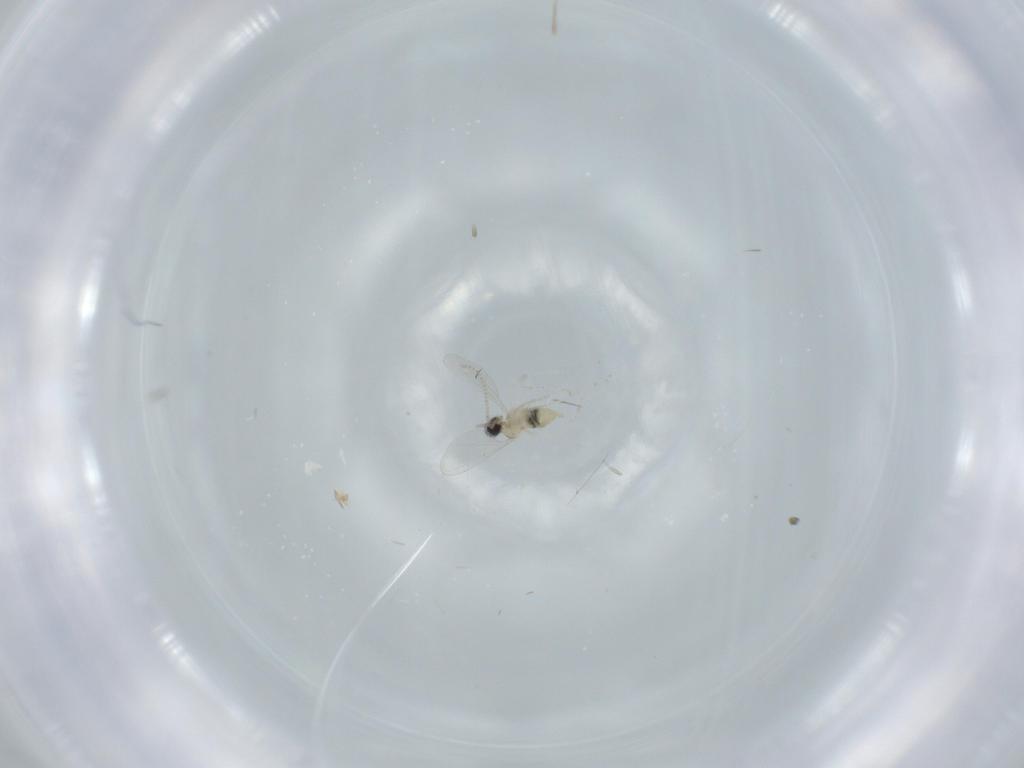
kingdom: Animalia
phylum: Arthropoda
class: Insecta
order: Diptera
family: Cecidomyiidae
